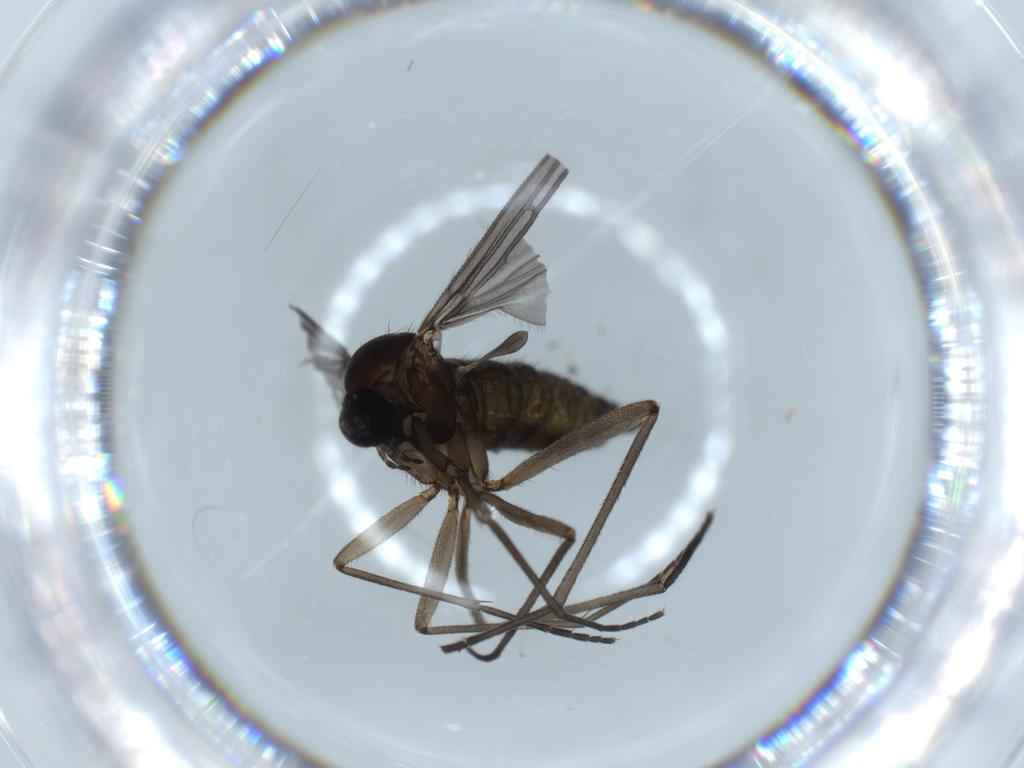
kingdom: Animalia
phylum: Arthropoda
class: Insecta
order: Diptera
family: Sciaridae
